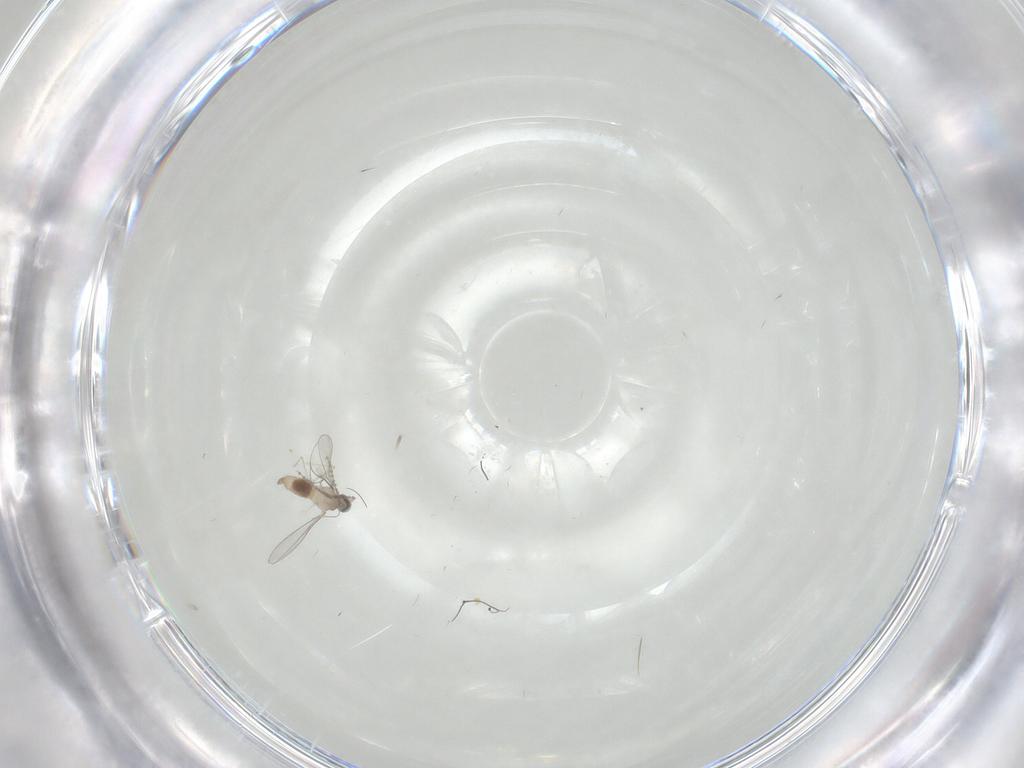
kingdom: Animalia
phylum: Arthropoda
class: Insecta
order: Diptera
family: Cecidomyiidae
